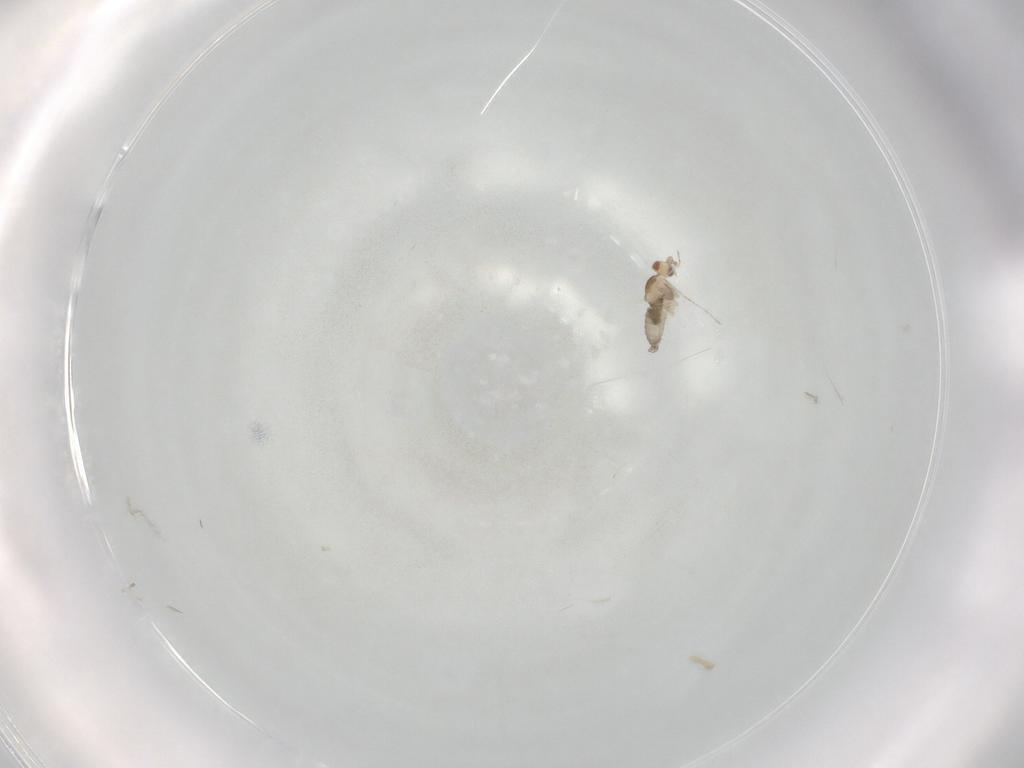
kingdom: Animalia
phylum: Arthropoda
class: Insecta
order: Diptera
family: Cecidomyiidae
